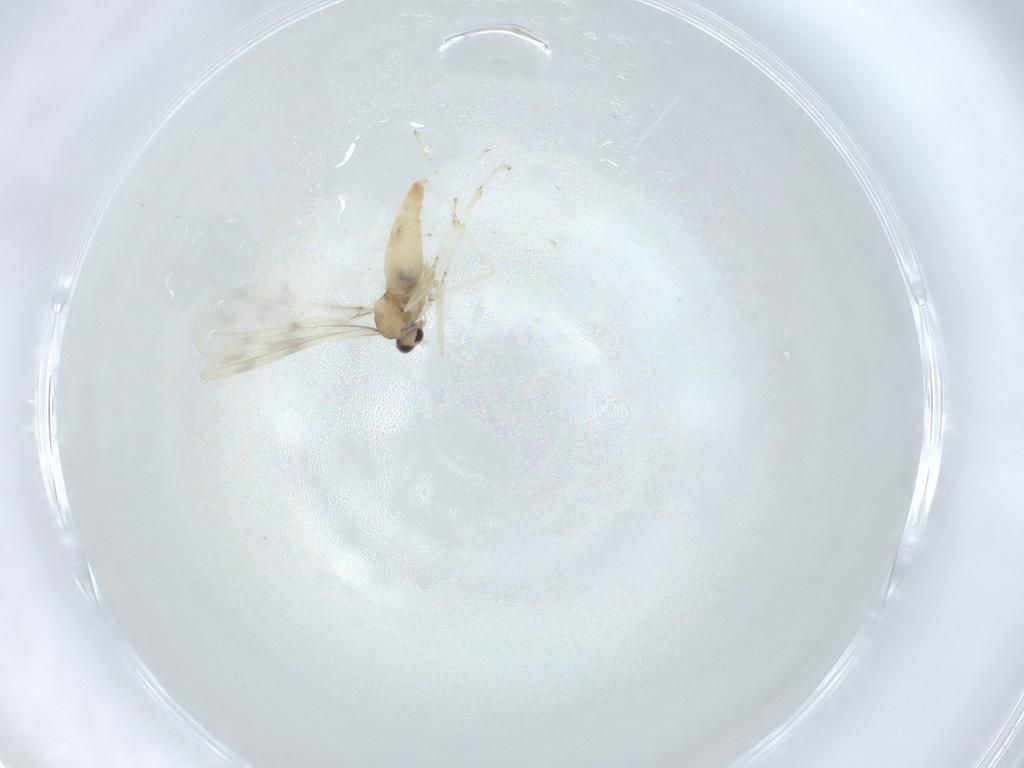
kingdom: Animalia
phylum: Arthropoda
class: Insecta
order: Diptera
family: Cecidomyiidae
